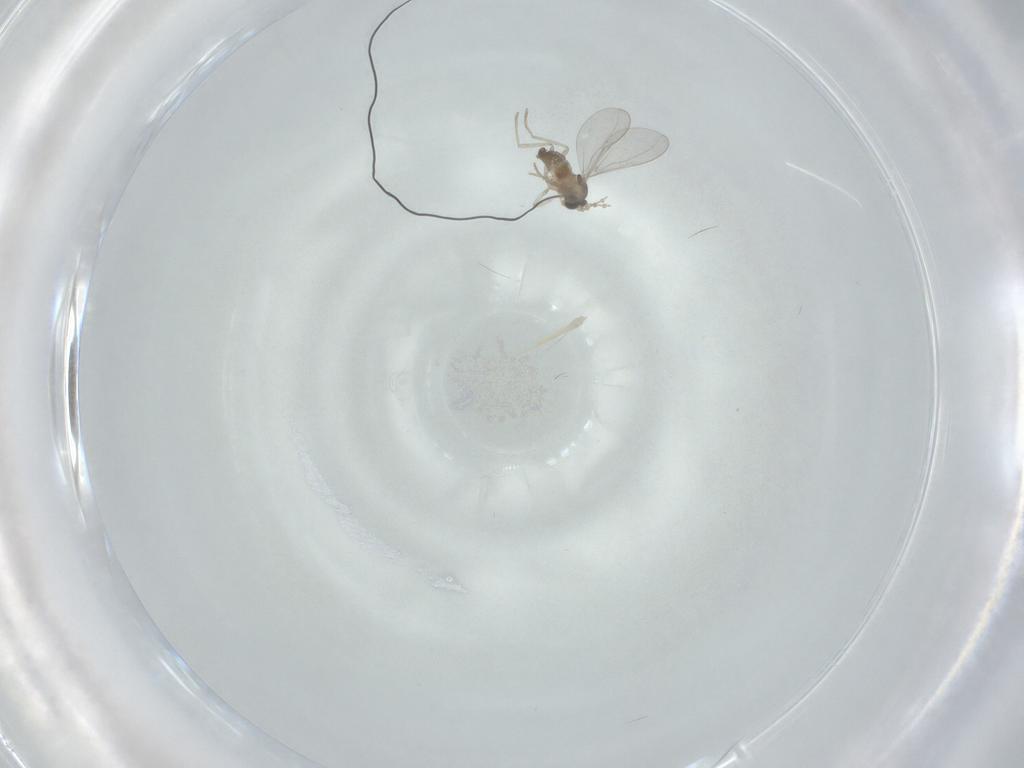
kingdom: Animalia
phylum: Arthropoda
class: Insecta
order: Diptera
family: Cecidomyiidae
